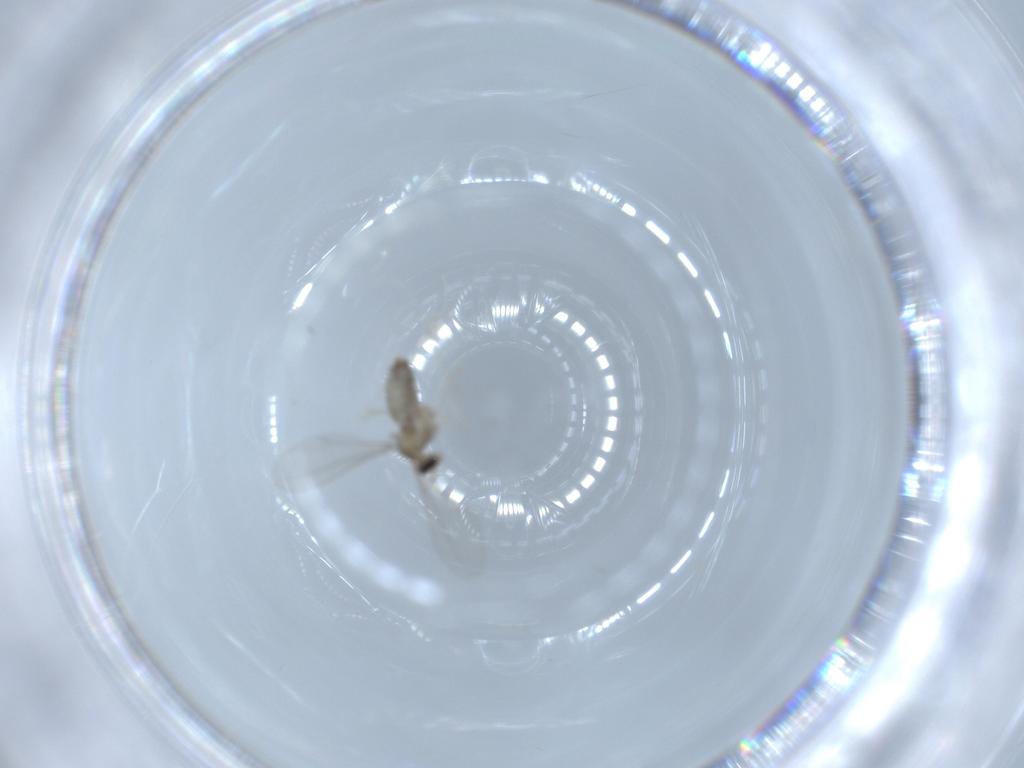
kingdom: Animalia
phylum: Arthropoda
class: Insecta
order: Diptera
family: Cecidomyiidae
